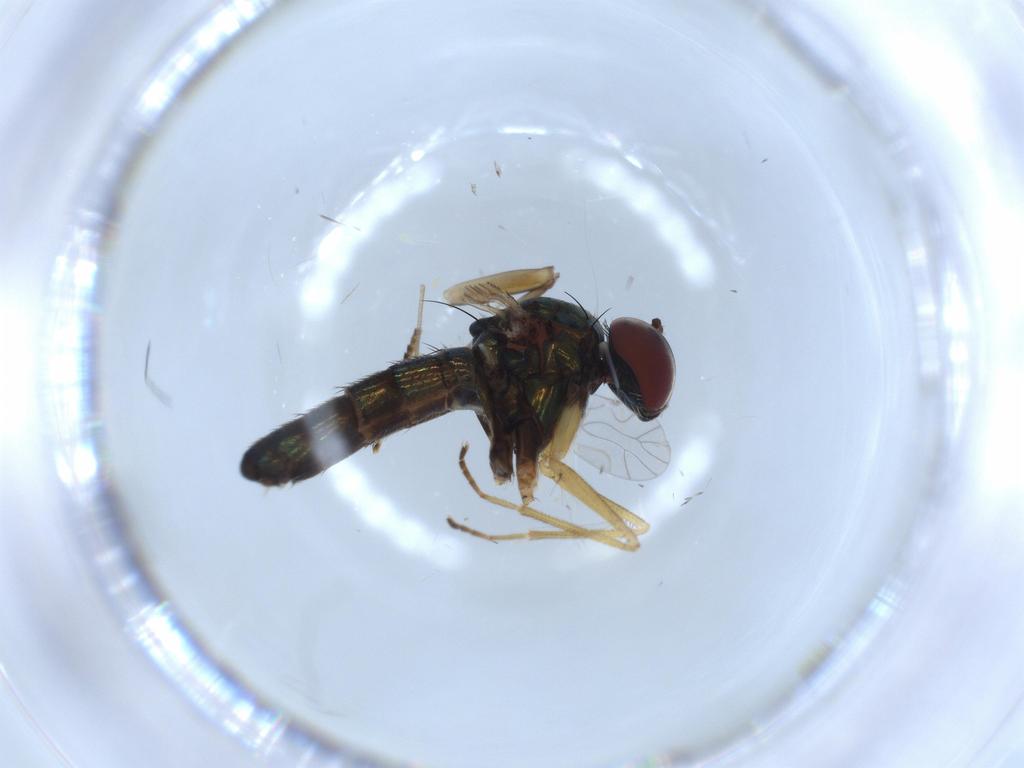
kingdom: Animalia
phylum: Arthropoda
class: Insecta
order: Diptera
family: Dolichopodidae
